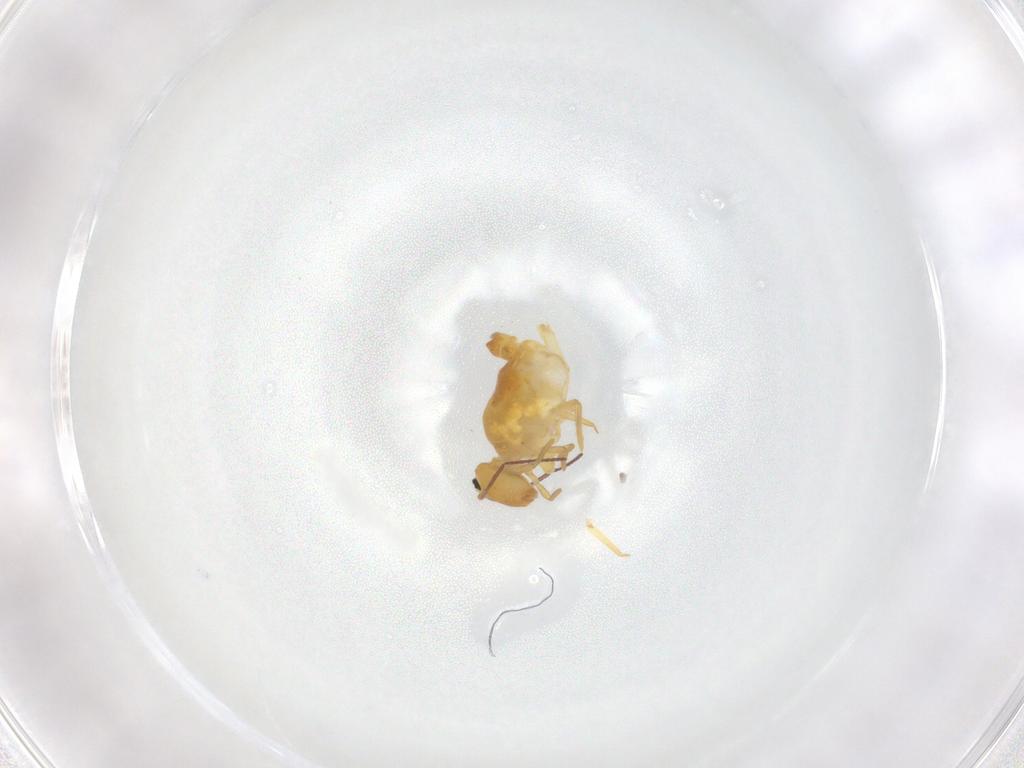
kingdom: Animalia
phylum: Arthropoda
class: Collembola
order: Symphypleona
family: Bourletiellidae
